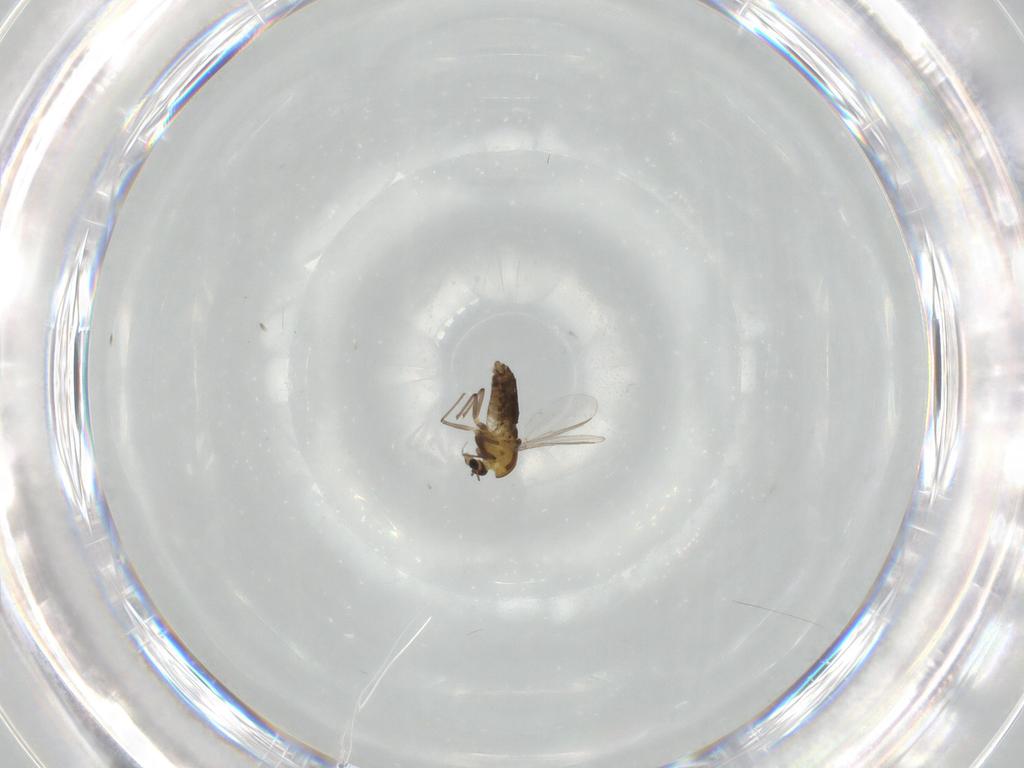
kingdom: Animalia
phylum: Arthropoda
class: Insecta
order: Diptera
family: Chironomidae
